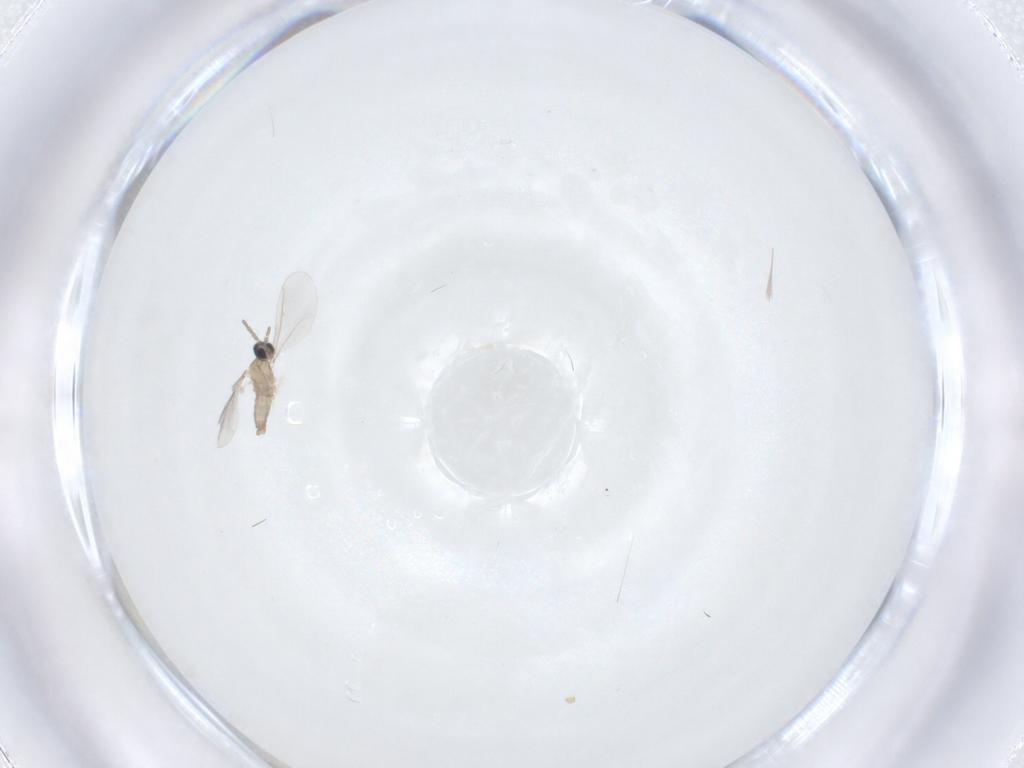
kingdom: Animalia
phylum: Arthropoda
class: Insecta
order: Diptera
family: Cecidomyiidae
